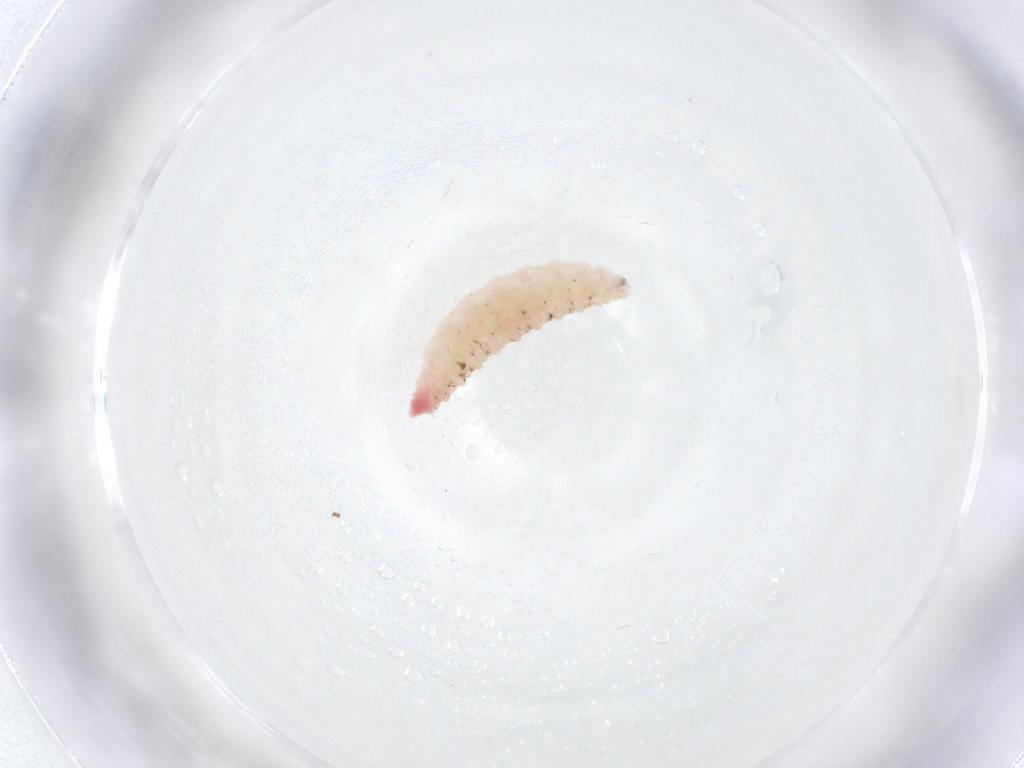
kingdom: Animalia
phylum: Arthropoda
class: Insecta
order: Diptera
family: Cecidomyiidae
